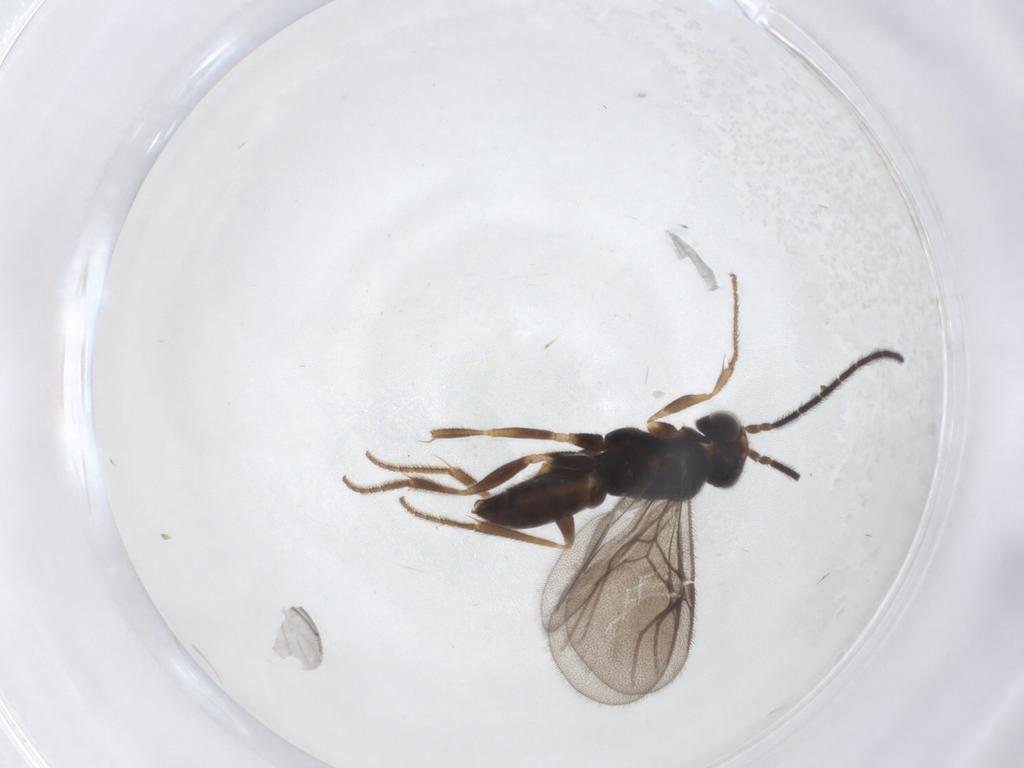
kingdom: Animalia
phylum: Arthropoda
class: Insecta
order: Hymenoptera
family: Dryinidae
